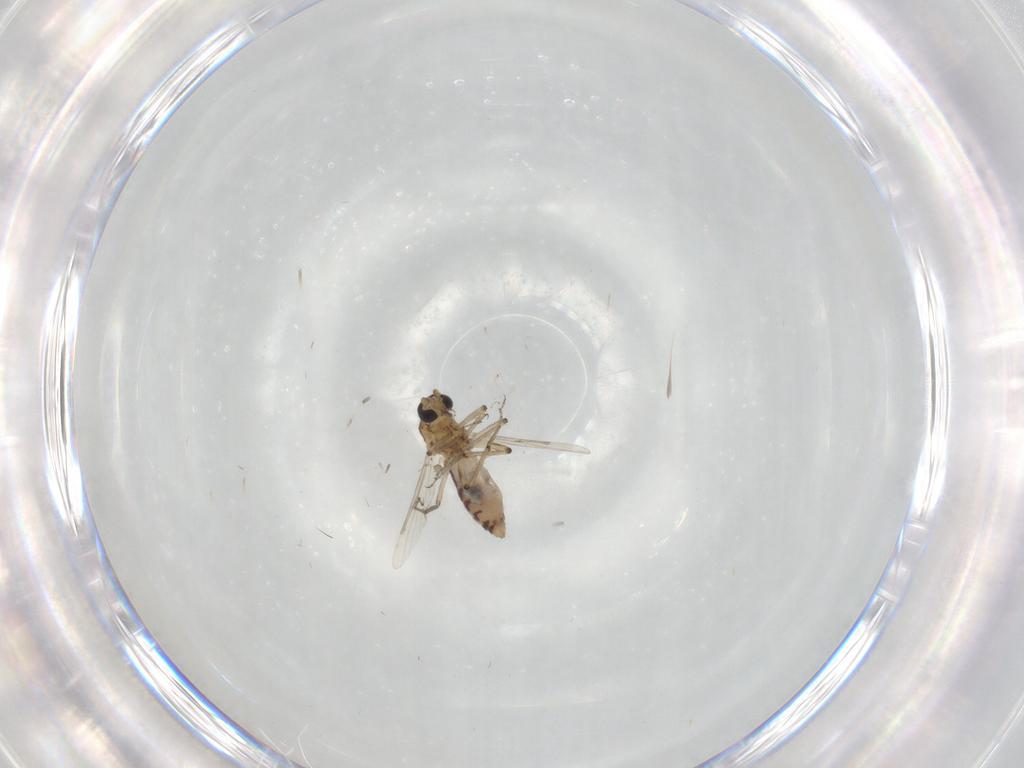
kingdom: Animalia
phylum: Arthropoda
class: Insecta
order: Diptera
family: Ceratopogonidae
